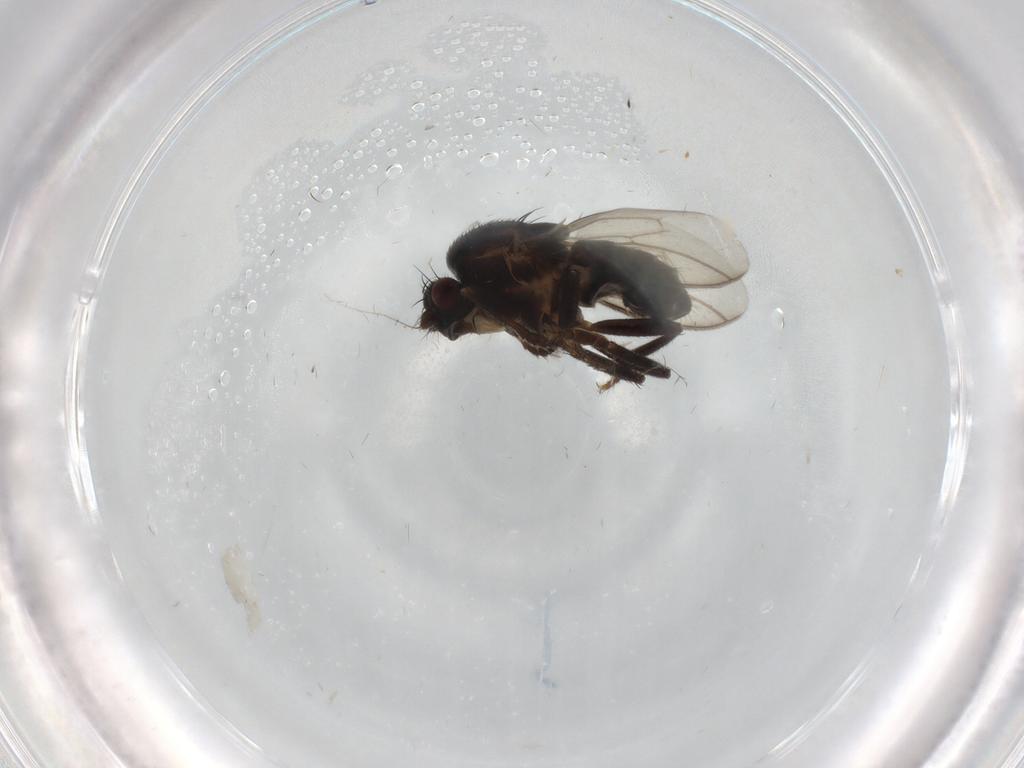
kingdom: Animalia
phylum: Arthropoda
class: Insecta
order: Diptera
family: Sphaeroceridae
